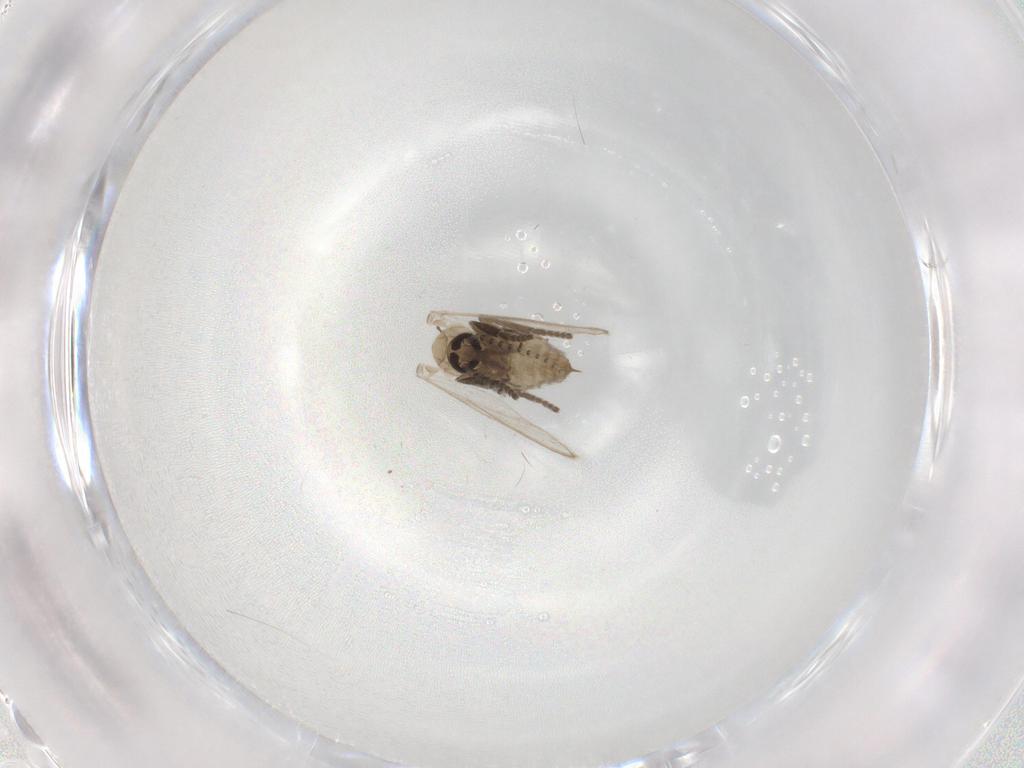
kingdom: Animalia
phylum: Arthropoda
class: Insecta
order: Diptera
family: Psychodidae
